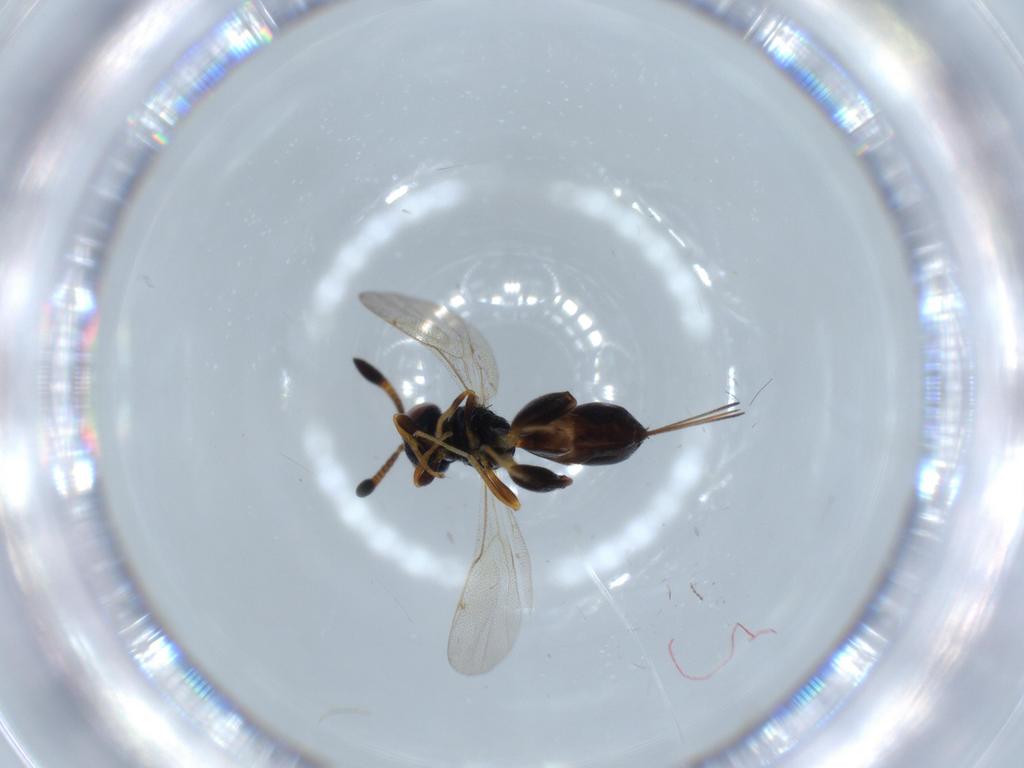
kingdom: Animalia
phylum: Arthropoda
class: Insecta
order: Hymenoptera
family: Torymidae
